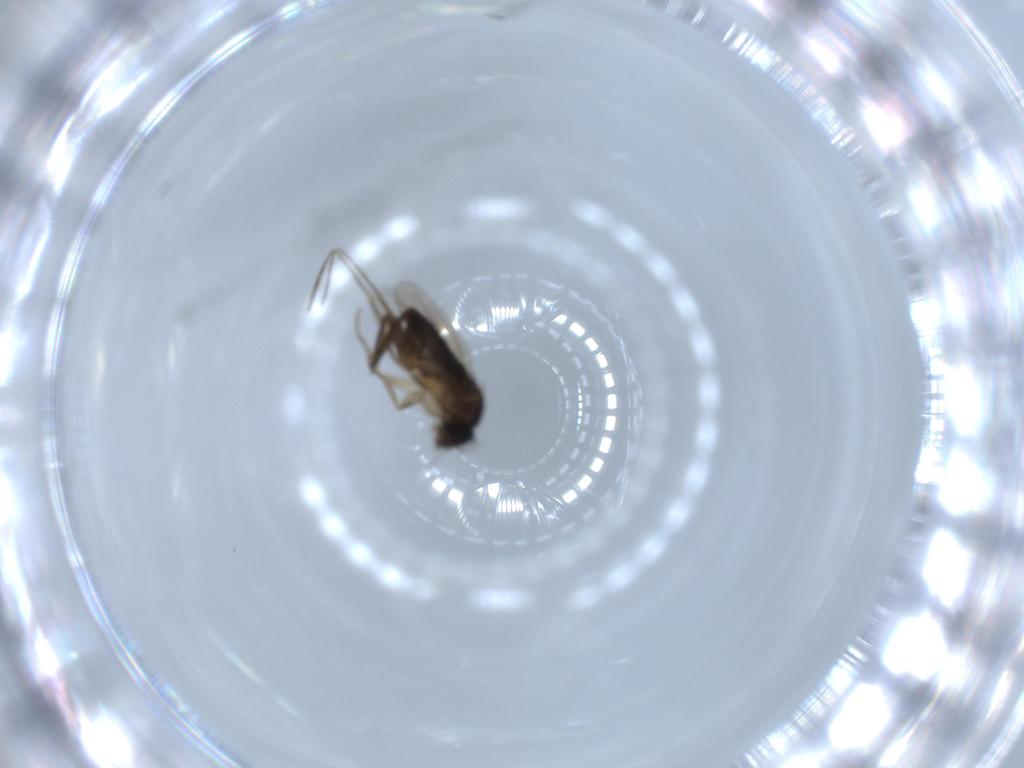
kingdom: Animalia
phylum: Arthropoda
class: Insecta
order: Diptera
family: Phoridae
